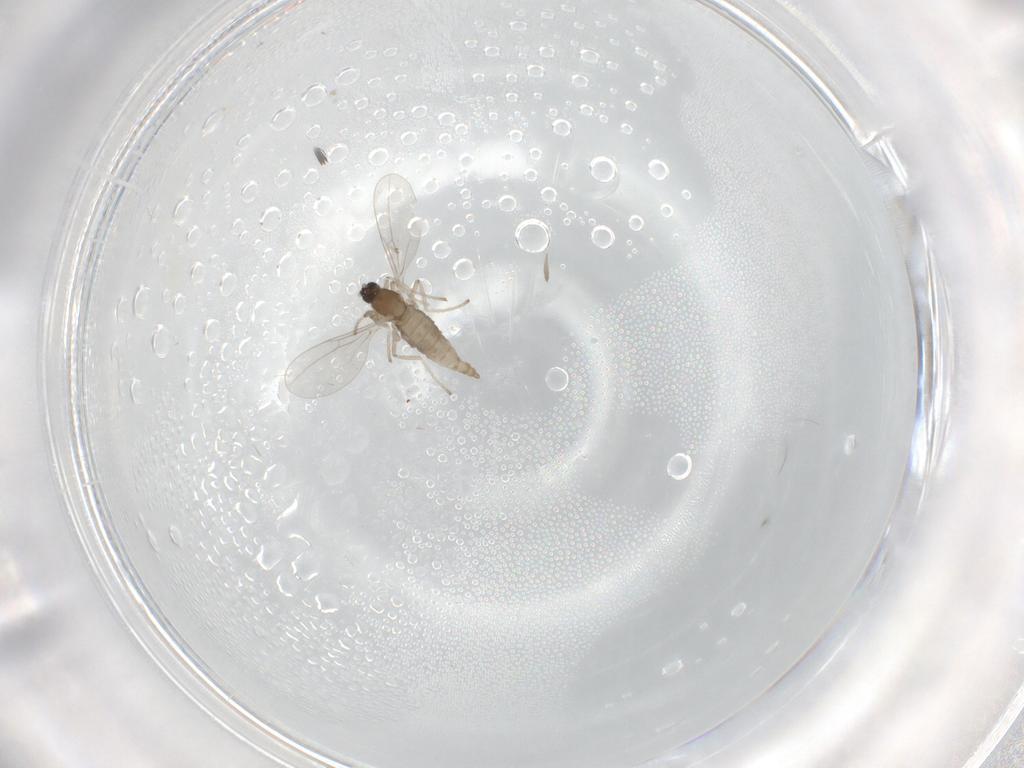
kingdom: Animalia
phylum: Arthropoda
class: Insecta
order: Diptera
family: Cecidomyiidae
